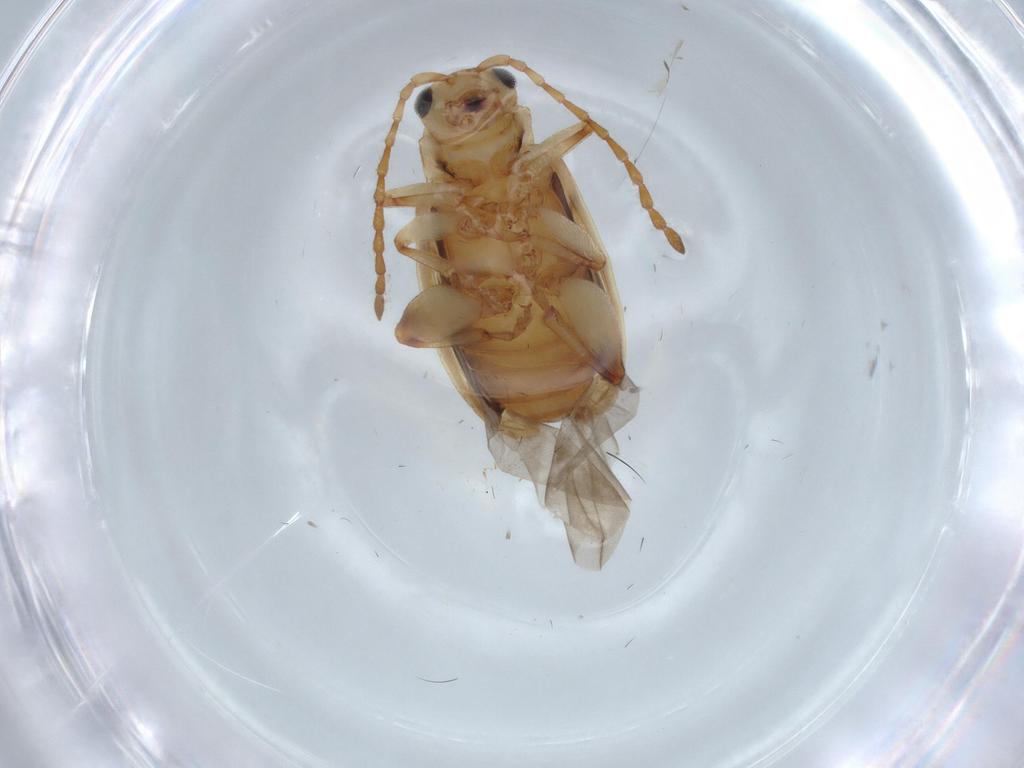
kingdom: Animalia
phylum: Arthropoda
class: Insecta
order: Coleoptera
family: Chrysomelidae
